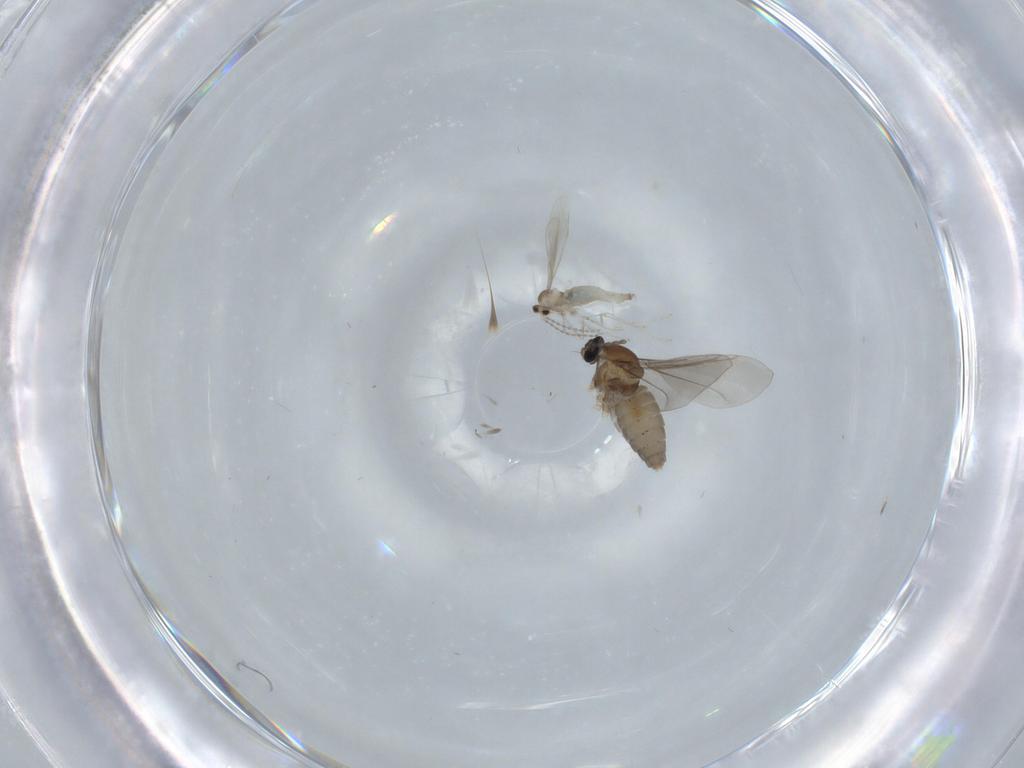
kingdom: Animalia
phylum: Arthropoda
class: Insecta
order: Diptera
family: Cecidomyiidae
